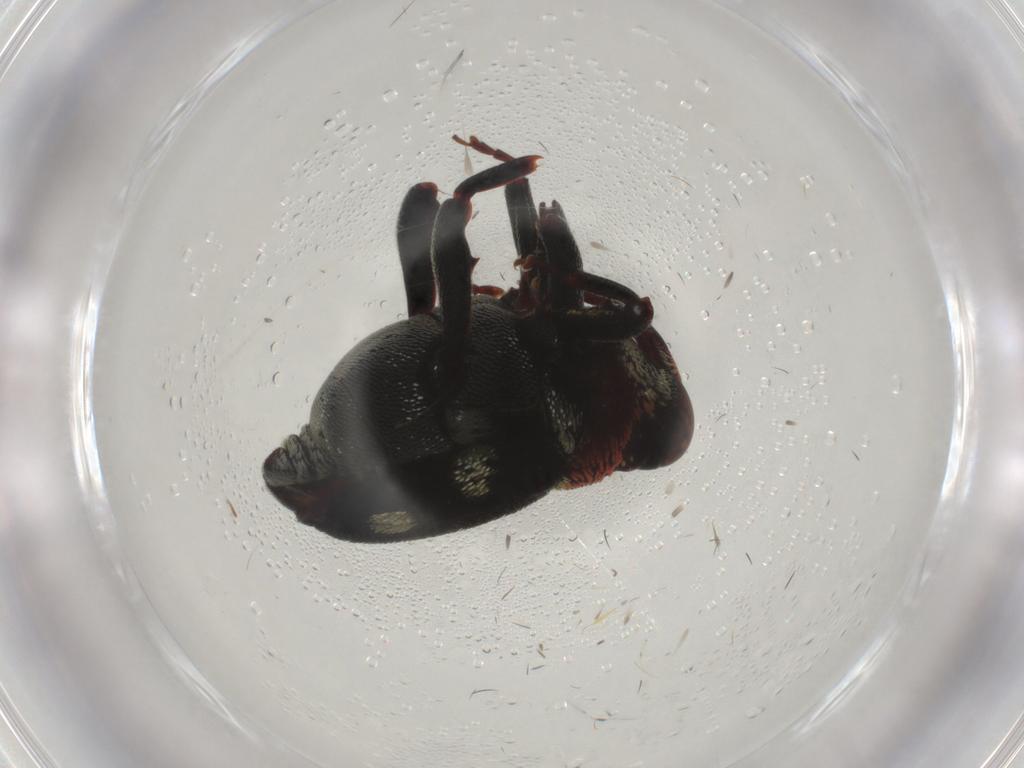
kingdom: Animalia
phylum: Arthropoda
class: Insecta
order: Coleoptera
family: Curculionidae
